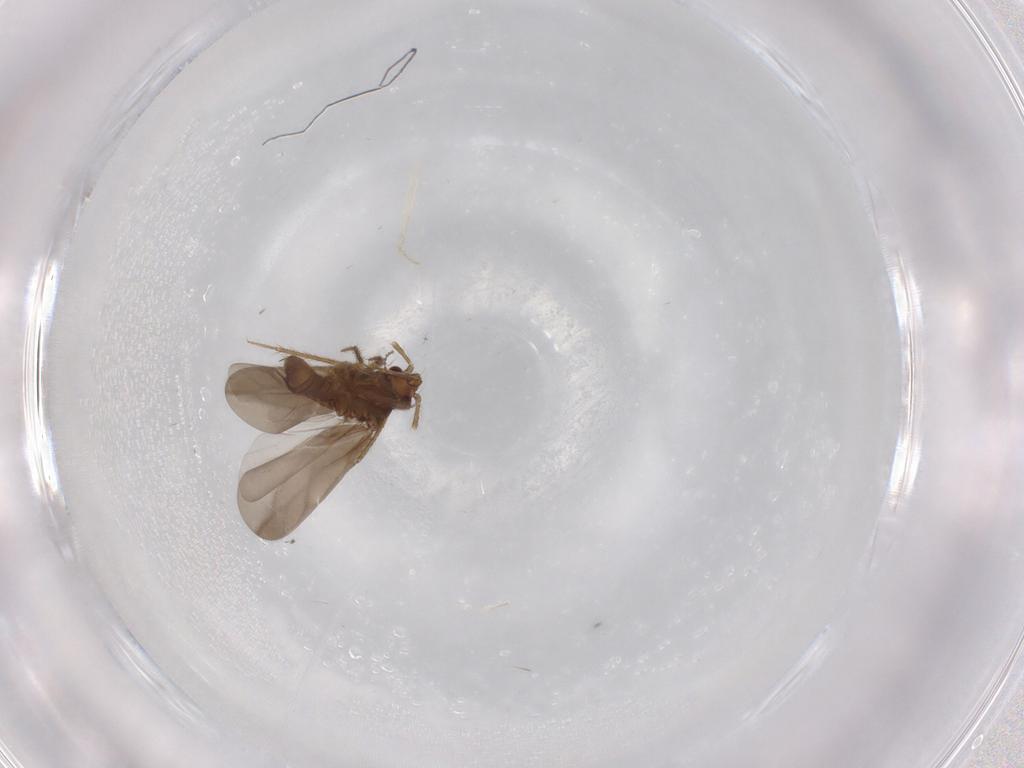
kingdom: Animalia
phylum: Arthropoda
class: Insecta
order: Hemiptera
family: Ceratocombidae
